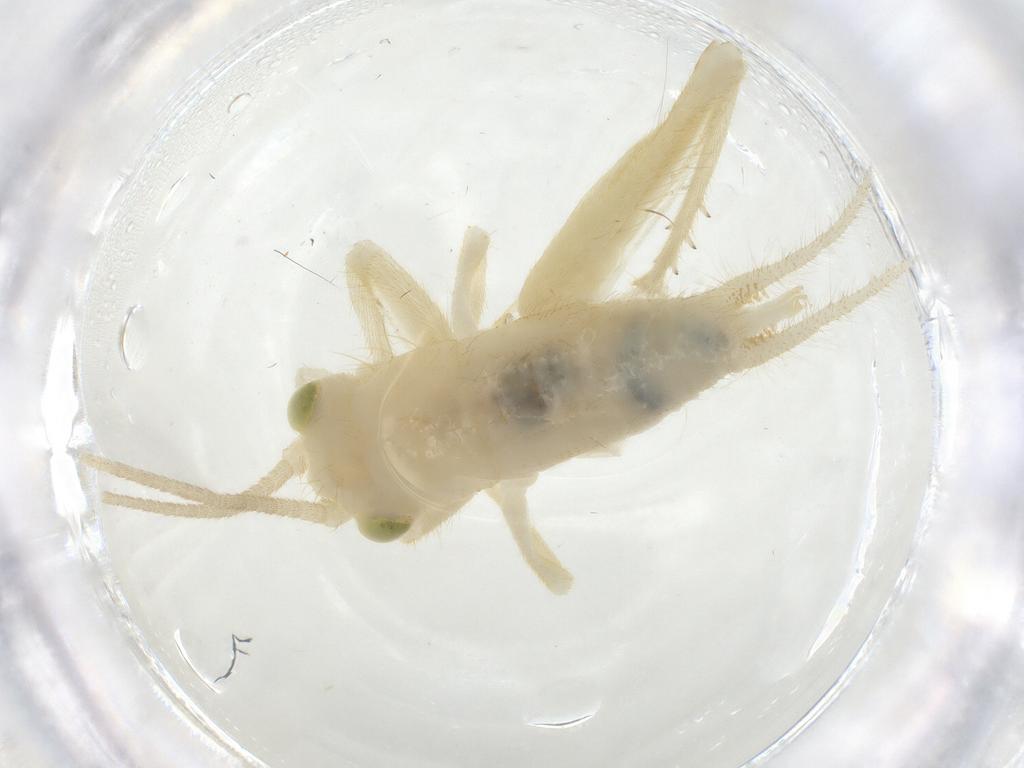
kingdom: Animalia
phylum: Arthropoda
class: Insecta
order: Orthoptera
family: Trigonidiidae
